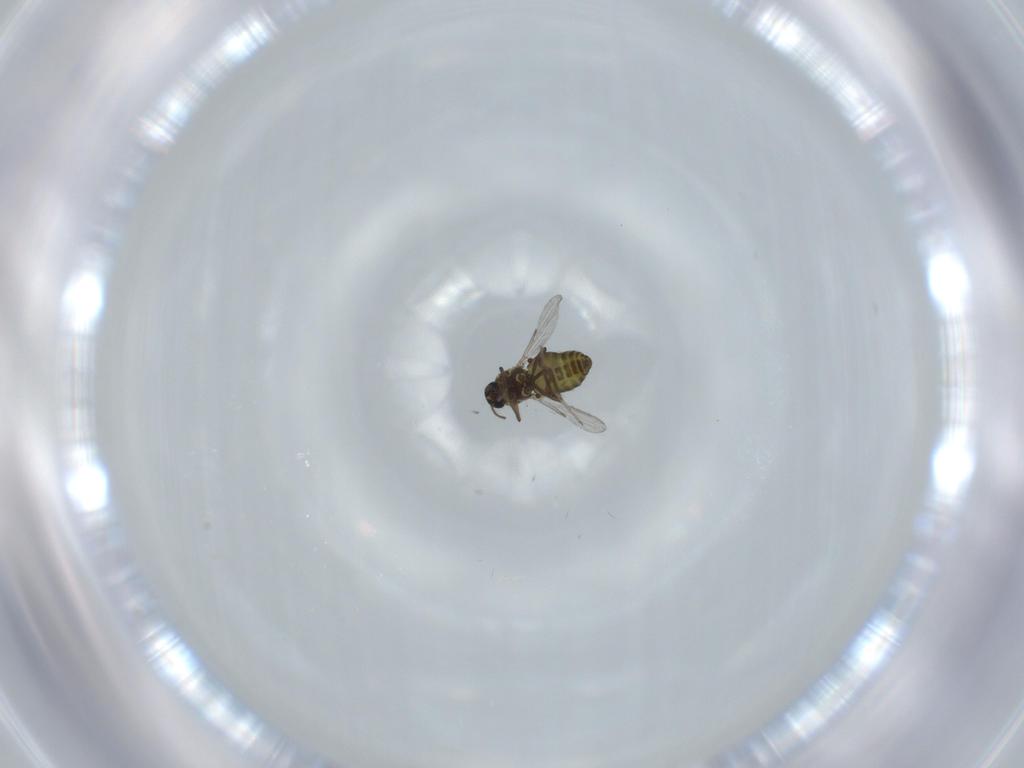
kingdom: Animalia
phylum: Arthropoda
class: Insecta
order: Diptera
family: Ceratopogonidae
